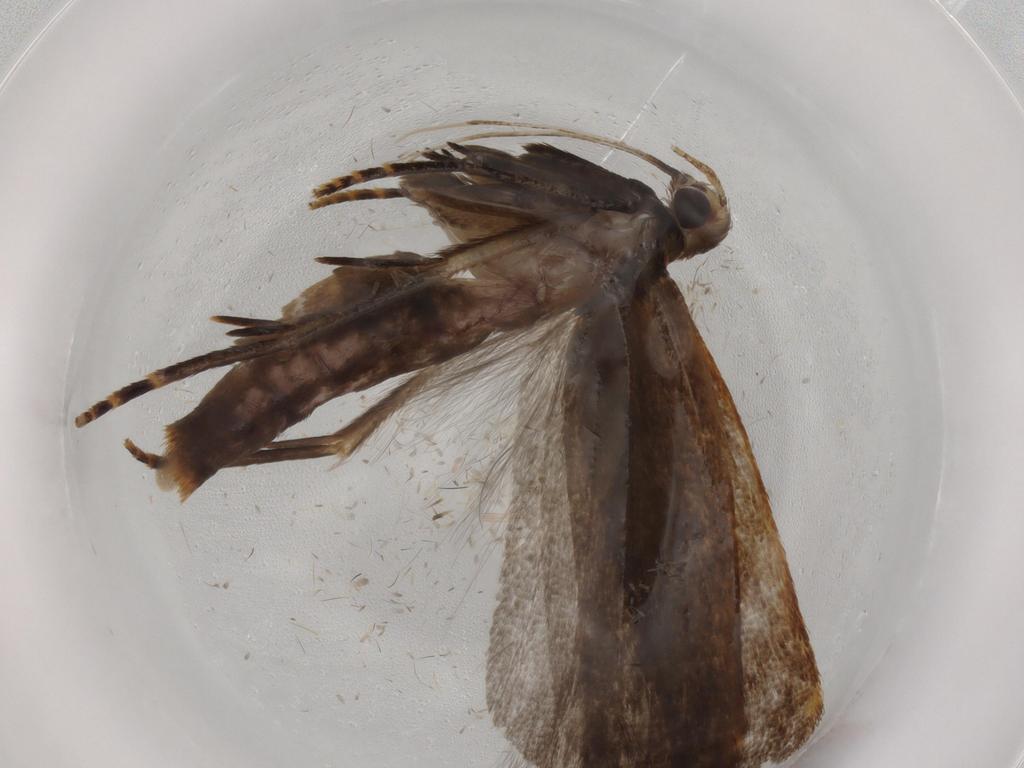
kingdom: Animalia
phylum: Arthropoda
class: Insecta
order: Lepidoptera
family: Gelechiidae
